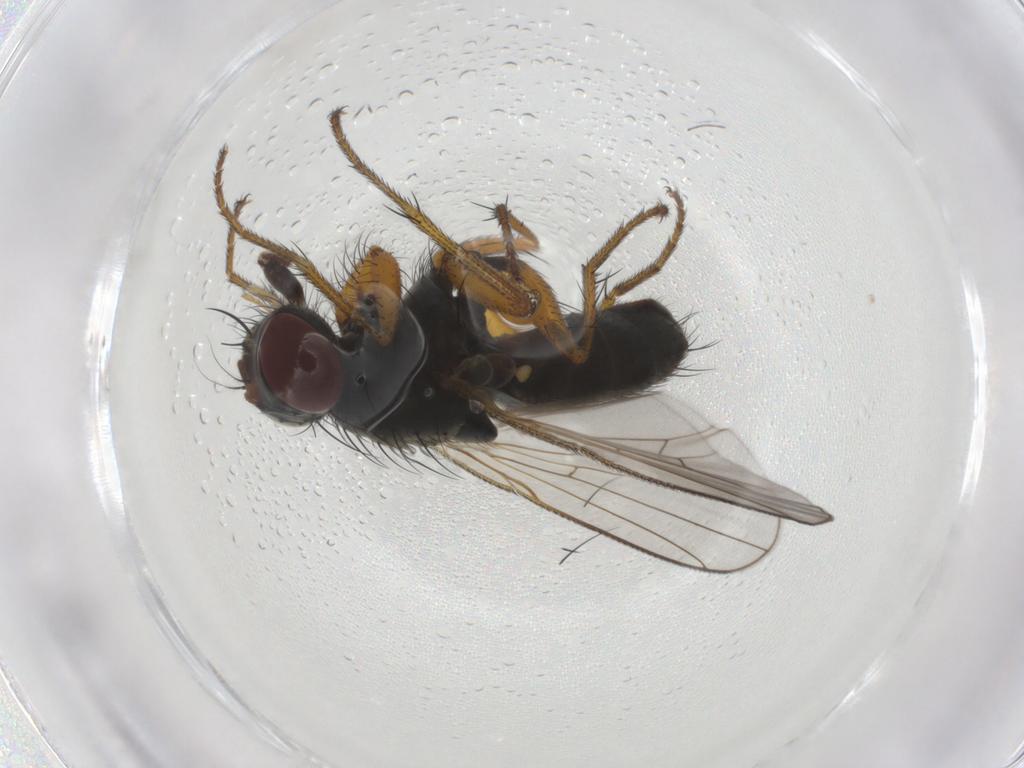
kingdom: Animalia
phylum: Arthropoda
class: Insecta
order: Diptera
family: Muscidae
